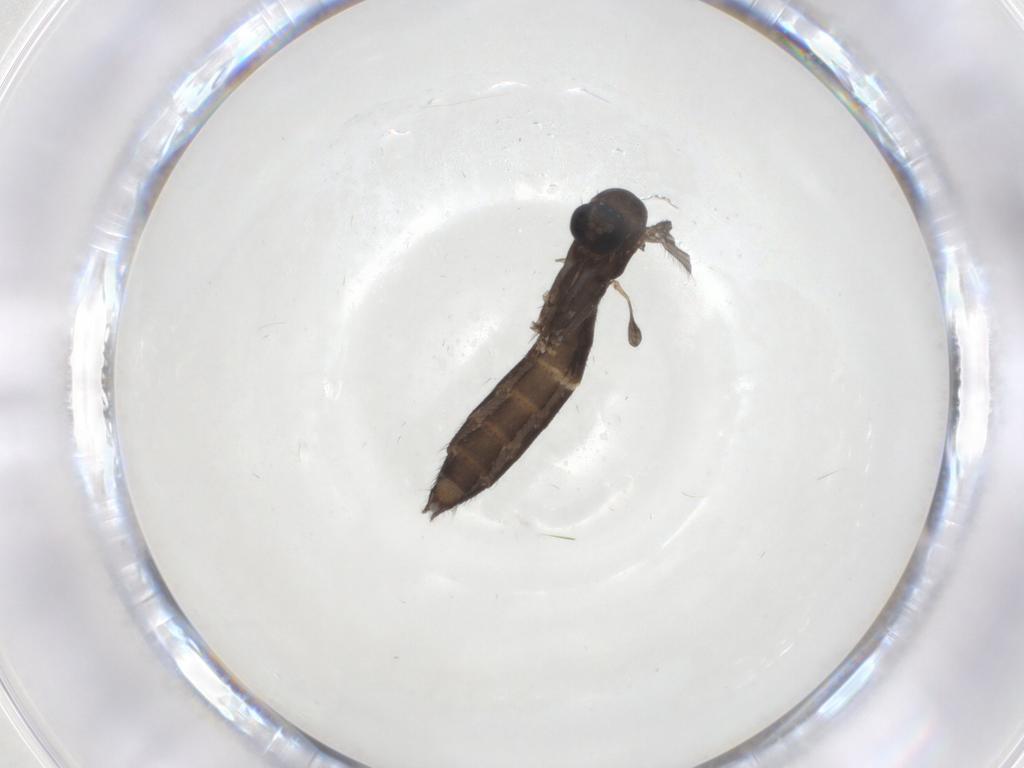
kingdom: Animalia
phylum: Arthropoda
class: Insecta
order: Diptera
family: Keroplatidae
